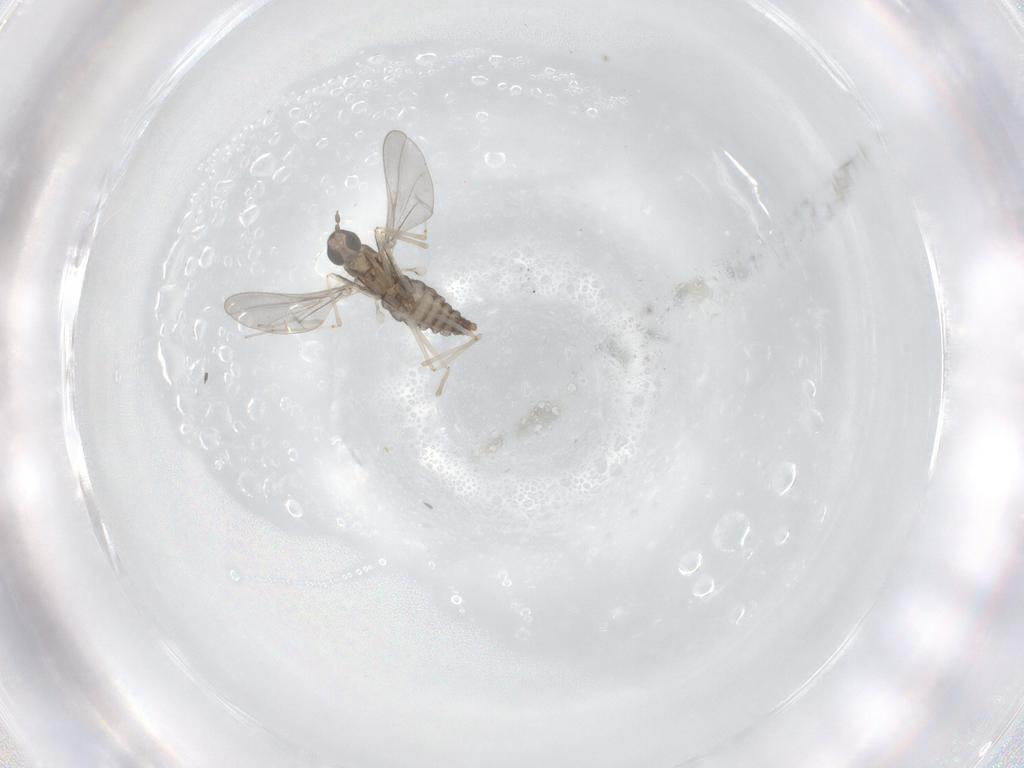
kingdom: Animalia
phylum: Arthropoda
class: Insecta
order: Diptera
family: Cecidomyiidae
